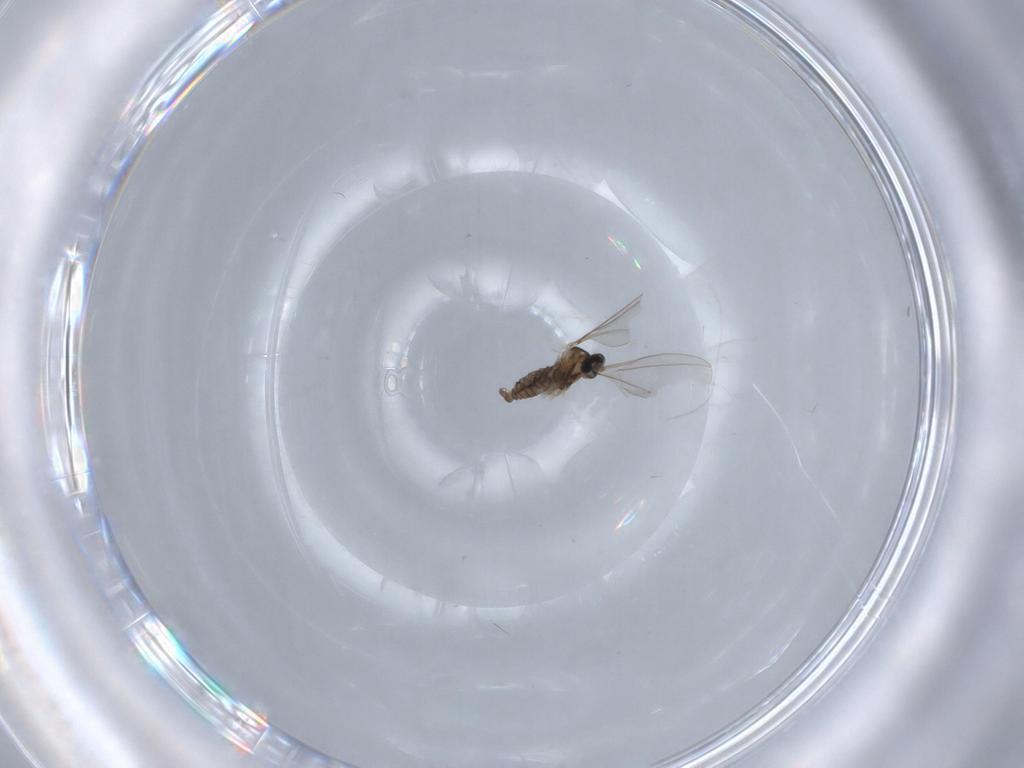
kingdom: Animalia
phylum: Arthropoda
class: Insecta
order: Diptera
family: Cecidomyiidae
